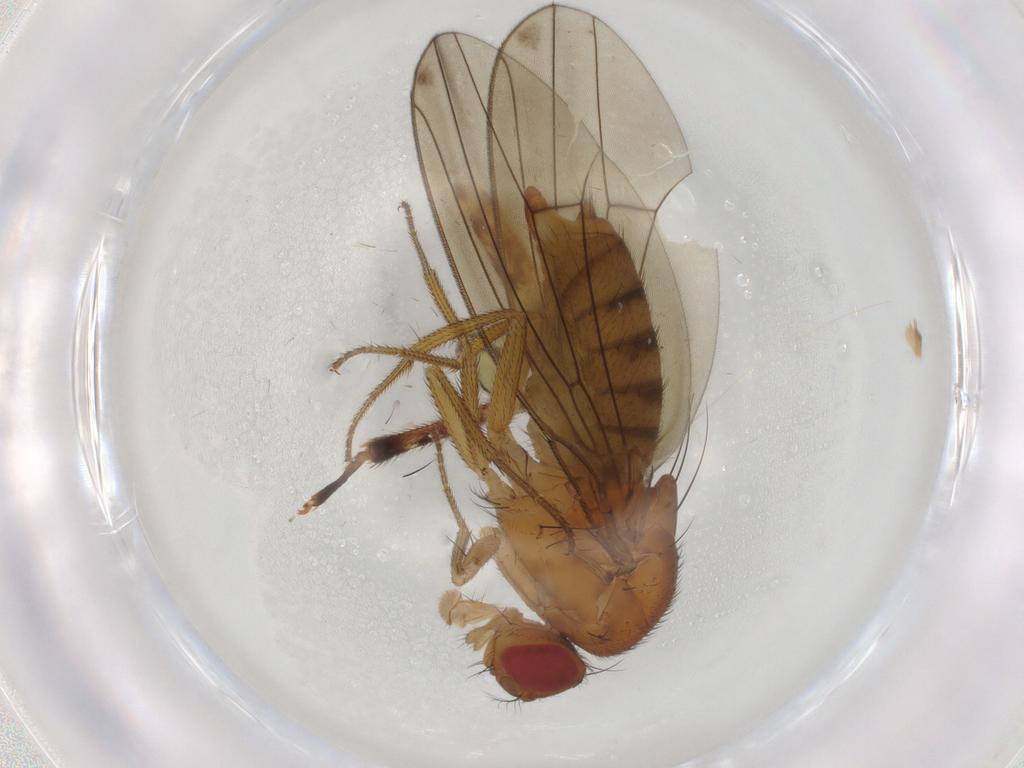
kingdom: Animalia
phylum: Arthropoda
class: Insecta
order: Diptera
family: Drosophilidae
